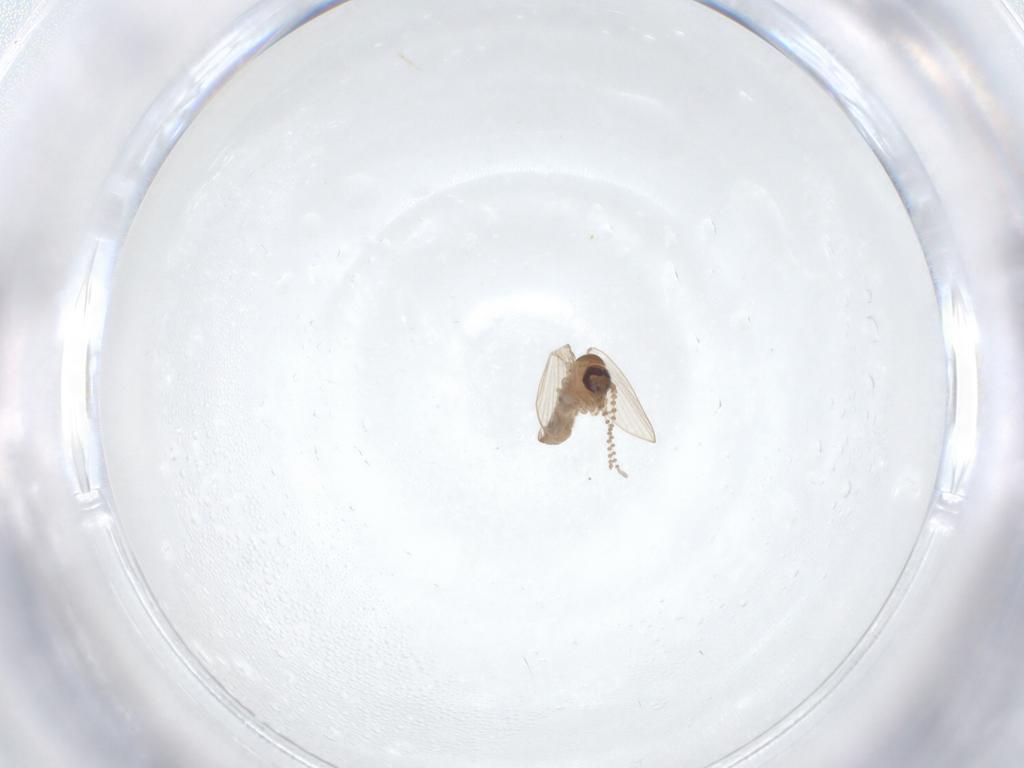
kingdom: Animalia
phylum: Arthropoda
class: Insecta
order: Diptera
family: Psychodidae
